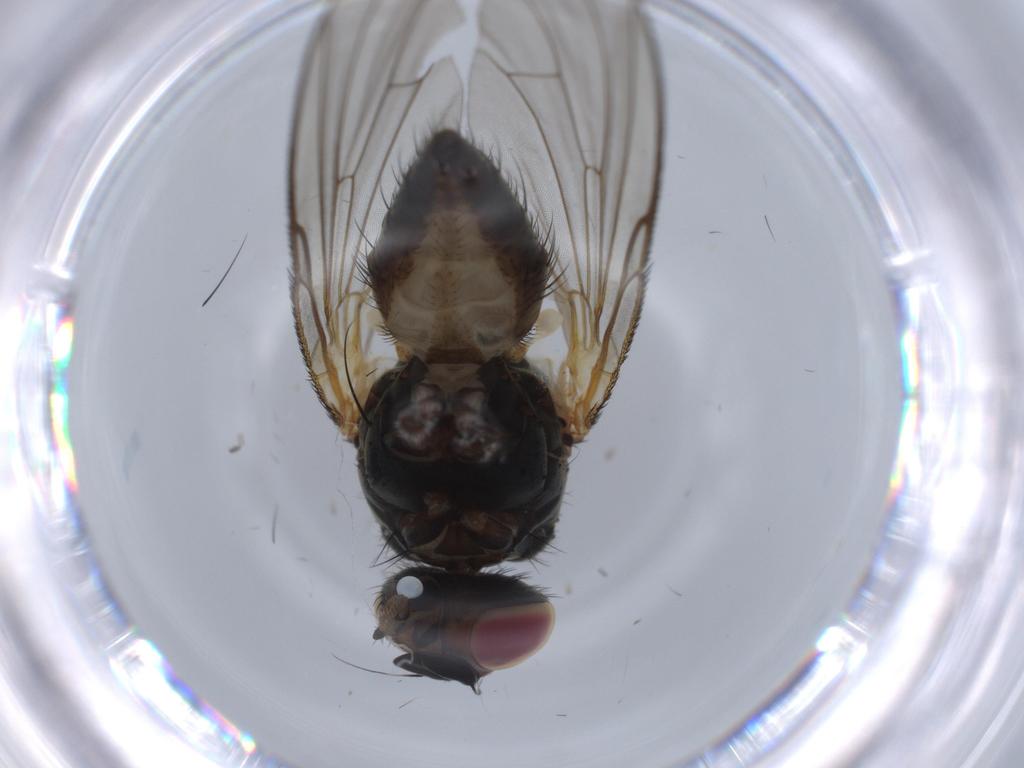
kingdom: Animalia
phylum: Arthropoda
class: Insecta
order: Diptera
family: Anthomyiidae
